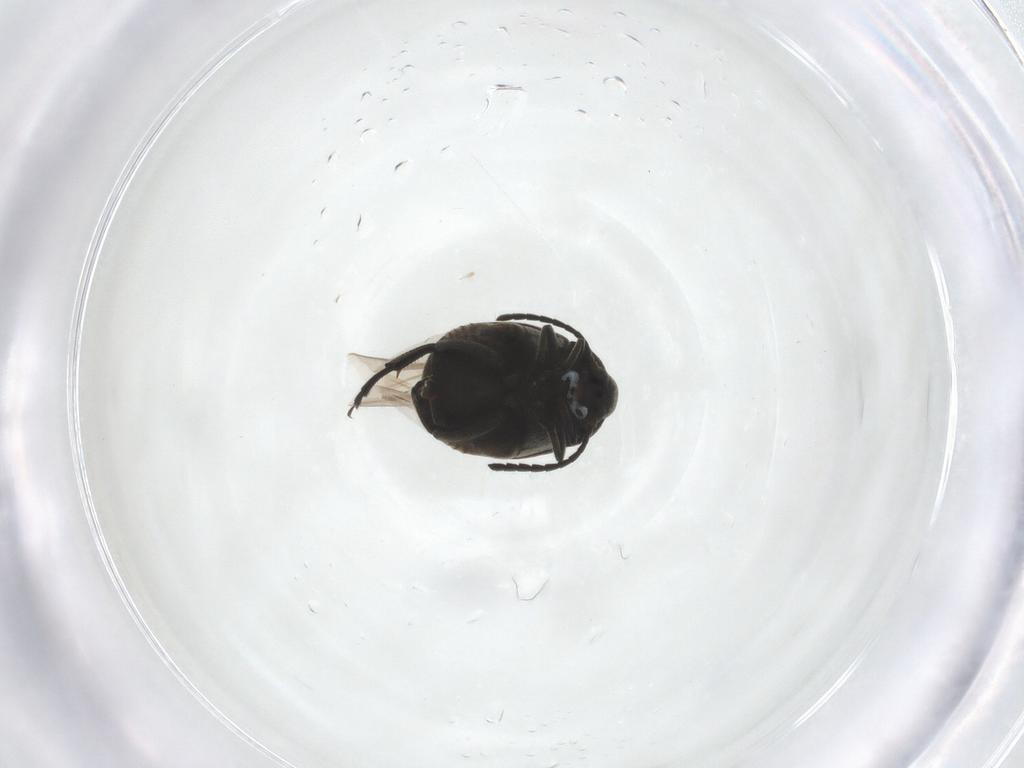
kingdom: Animalia
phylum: Arthropoda
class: Insecta
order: Coleoptera
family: Chrysomelidae
